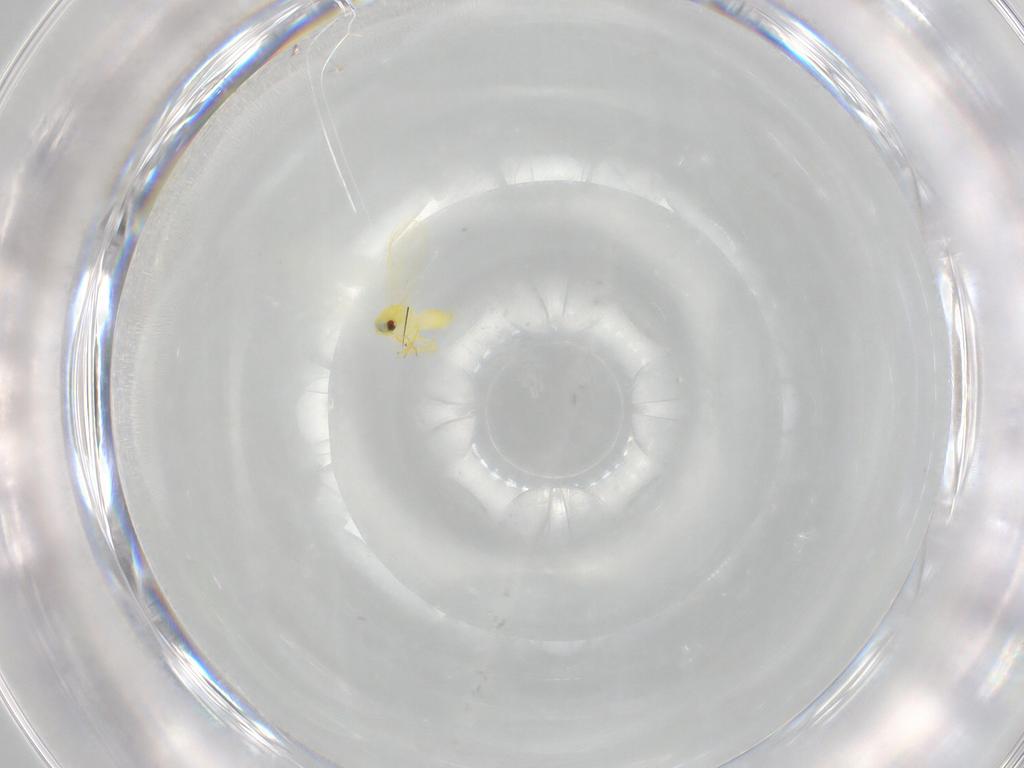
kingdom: Animalia
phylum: Arthropoda
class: Insecta
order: Hemiptera
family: Aleyrodidae
